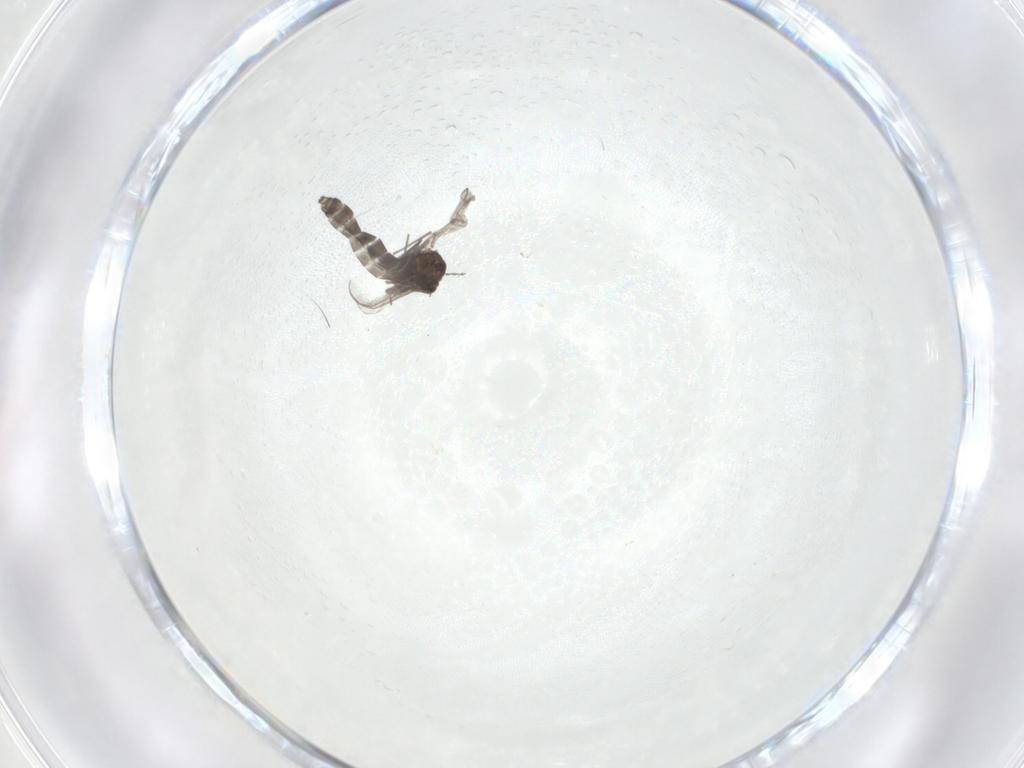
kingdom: Animalia
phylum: Arthropoda
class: Insecta
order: Diptera
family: Chironomidae
